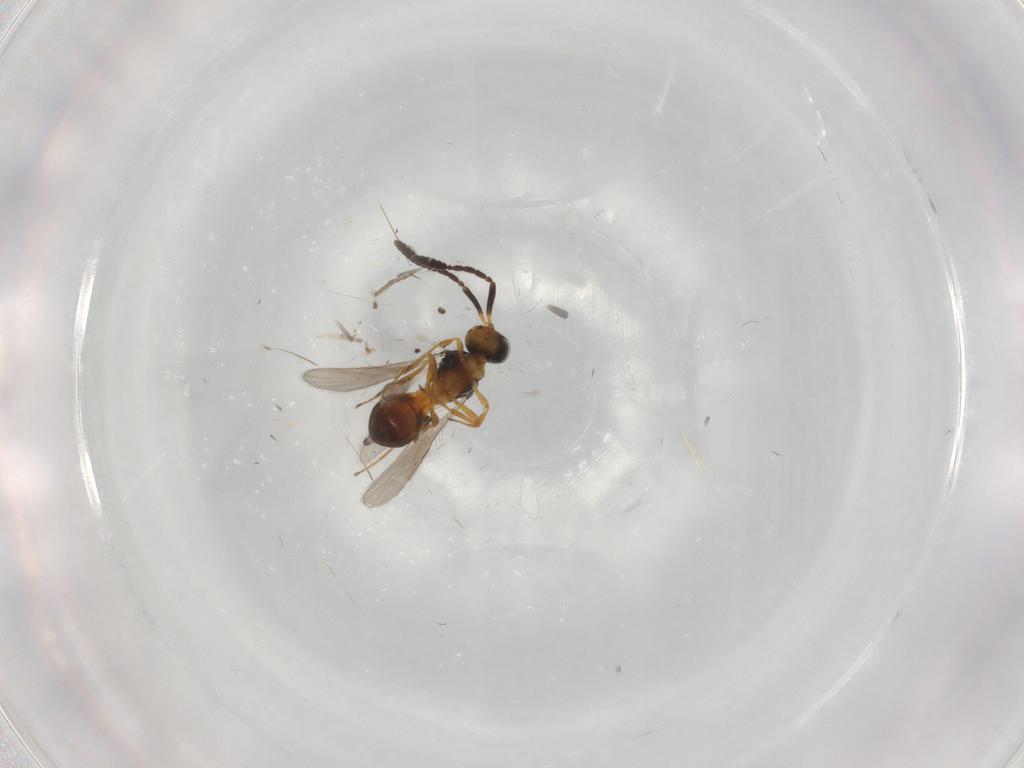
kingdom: Animalia
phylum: Arthropoda
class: Insecta
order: Hymenoptera
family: Scelionidae
